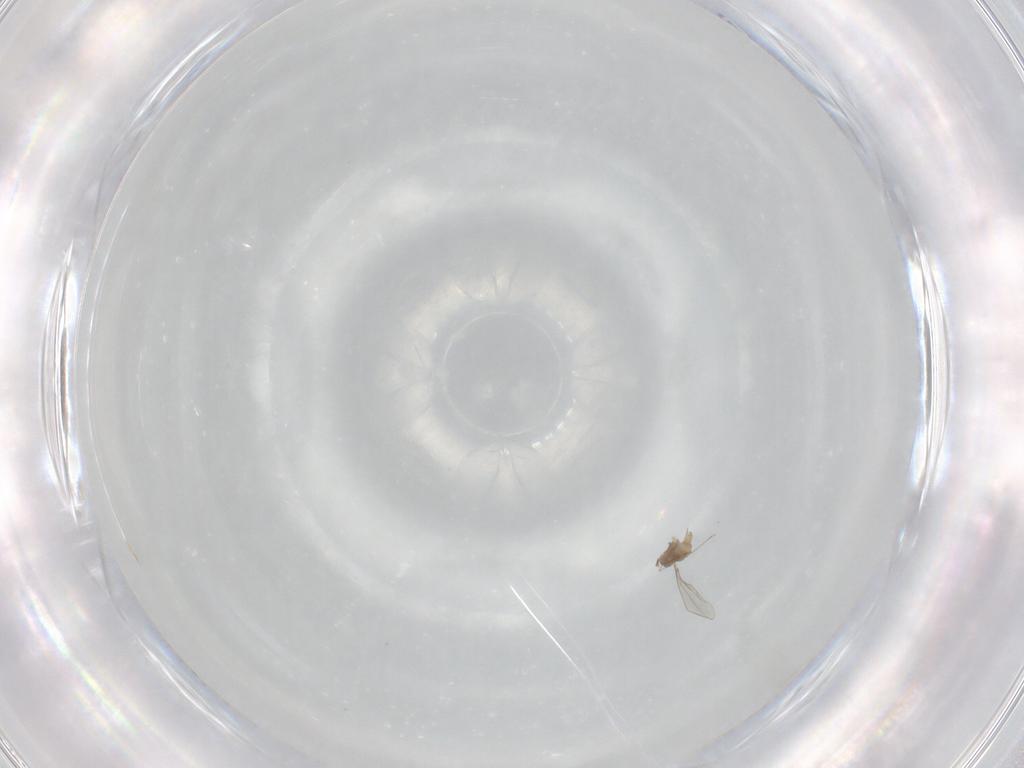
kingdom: Animalia
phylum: Arthropoda
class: Insecta
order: Diptera
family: Cecidomyiidae
